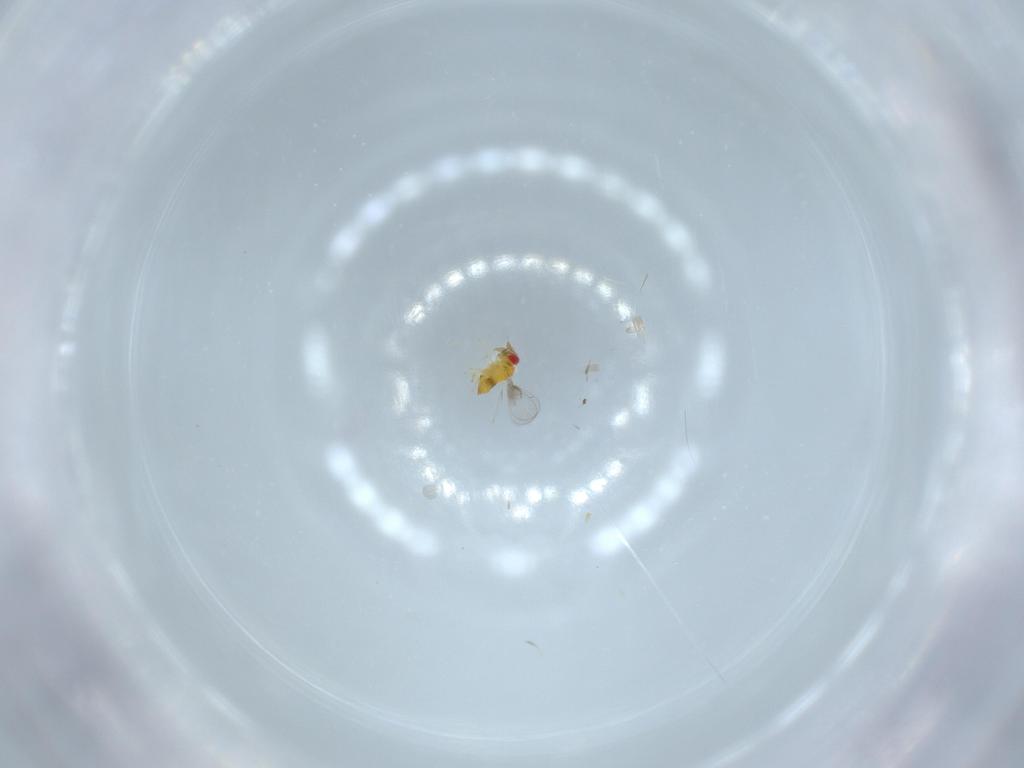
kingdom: Animalia
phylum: Arthropoda
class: Insecta
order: Hymenoptera
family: Trichogrammatidae
